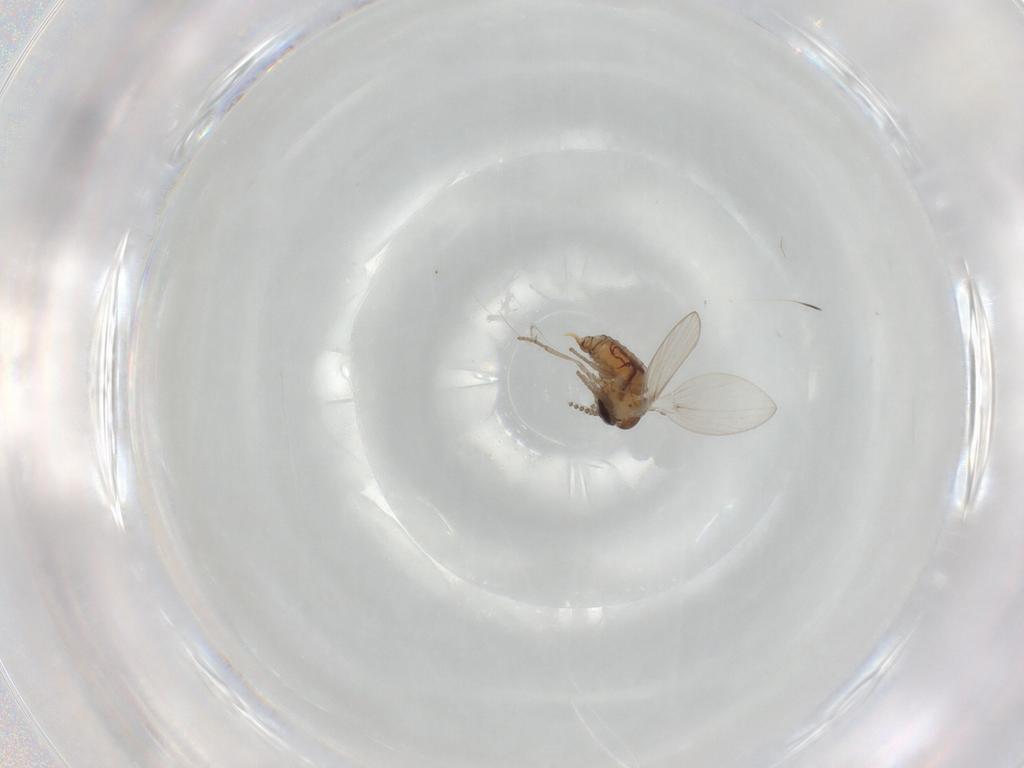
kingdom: Animalia
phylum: Arthropoda
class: Insecta
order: Diptera
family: Psychodidae
